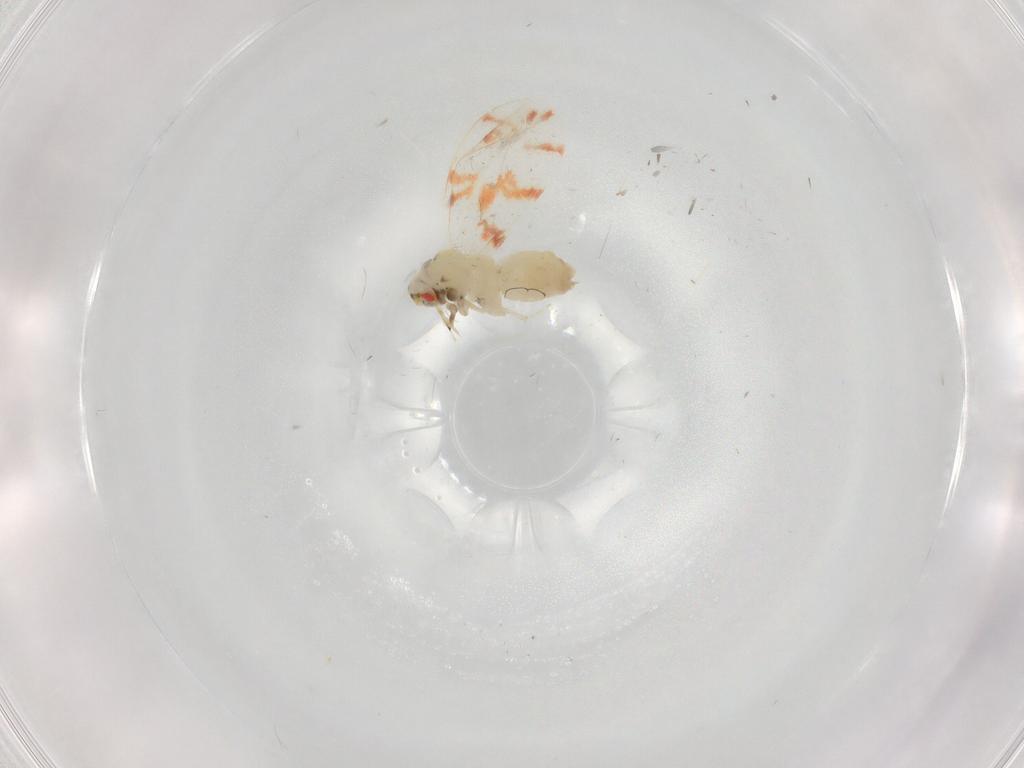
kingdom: Animalia
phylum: Arthropoda
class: Insecta
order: Hemiptera
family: Aleyrodidae
